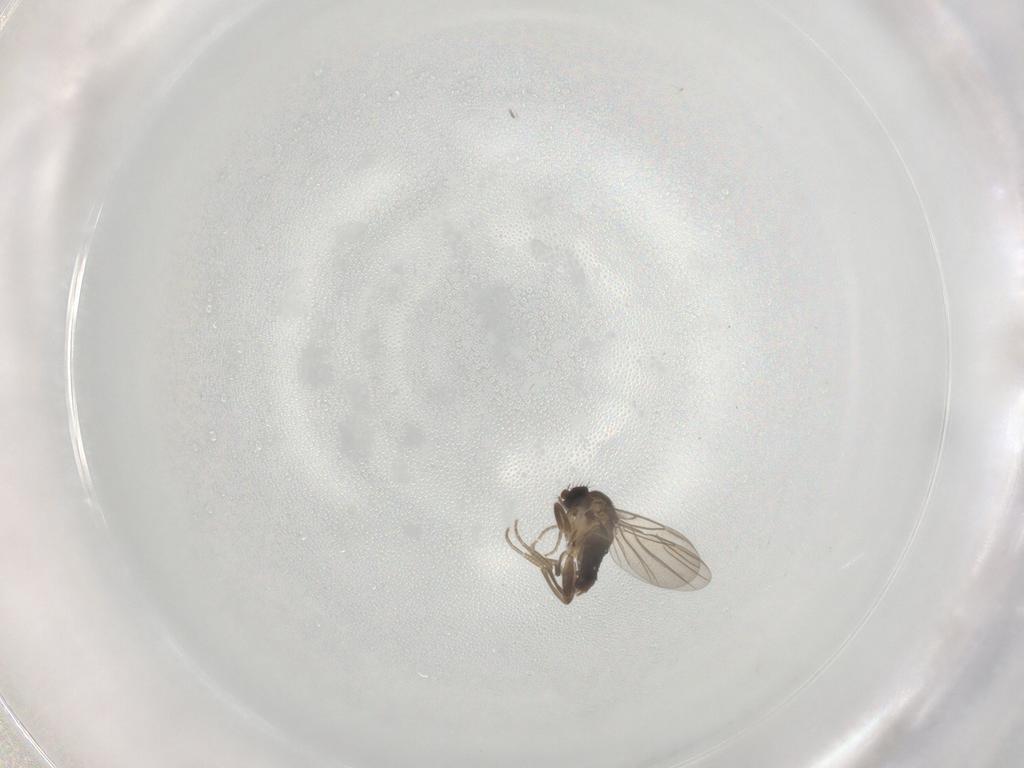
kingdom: Animalia
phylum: Arthropoda
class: Insecta
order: Diptera
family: Phoridae
